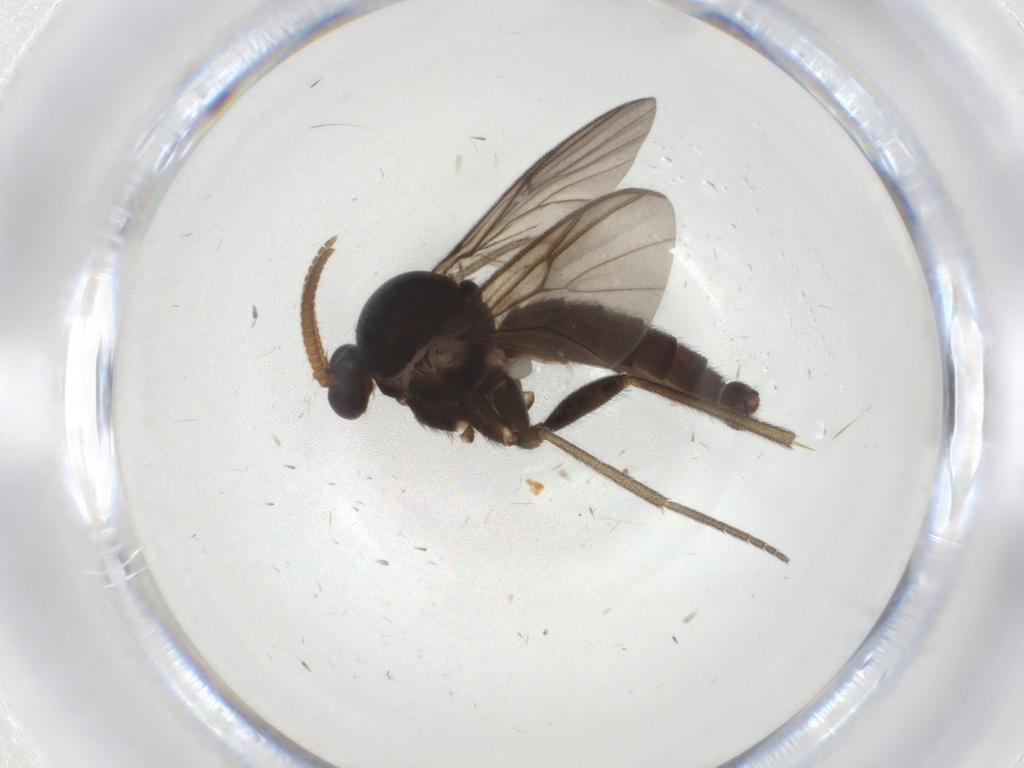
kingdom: Animalia
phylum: Arthropoda
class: Insecta
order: Diptera
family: Mycetophilidae
